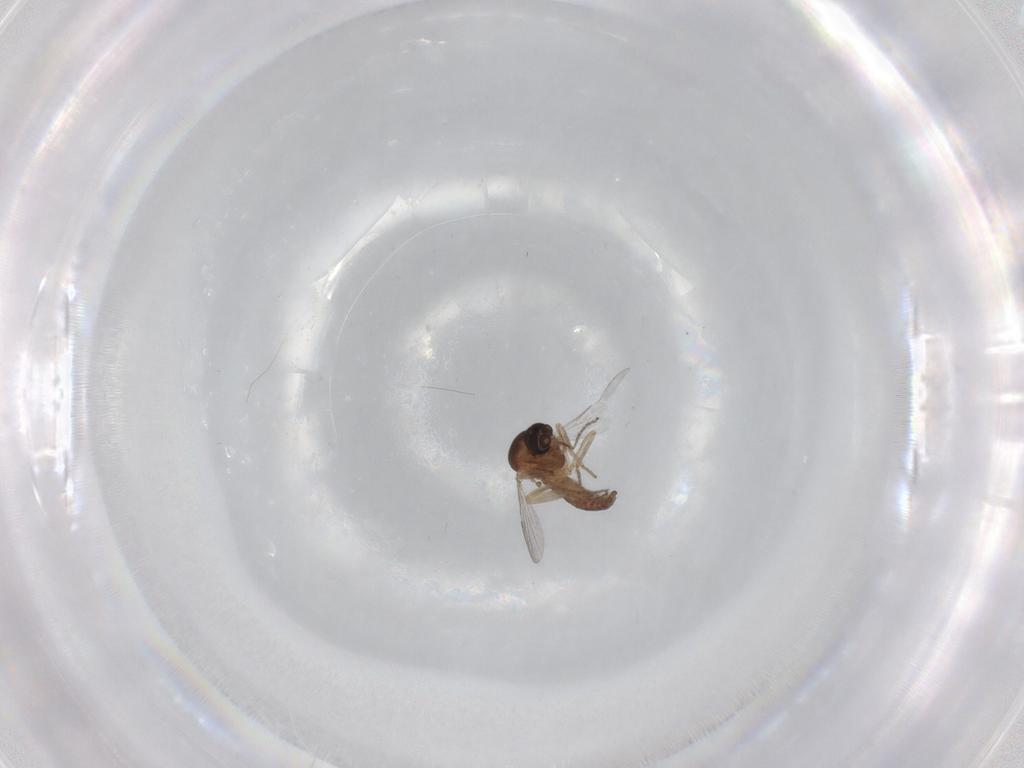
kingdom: Animalia
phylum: Arthropoda
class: Insecta
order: Diptera
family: Ceratopogonidae
